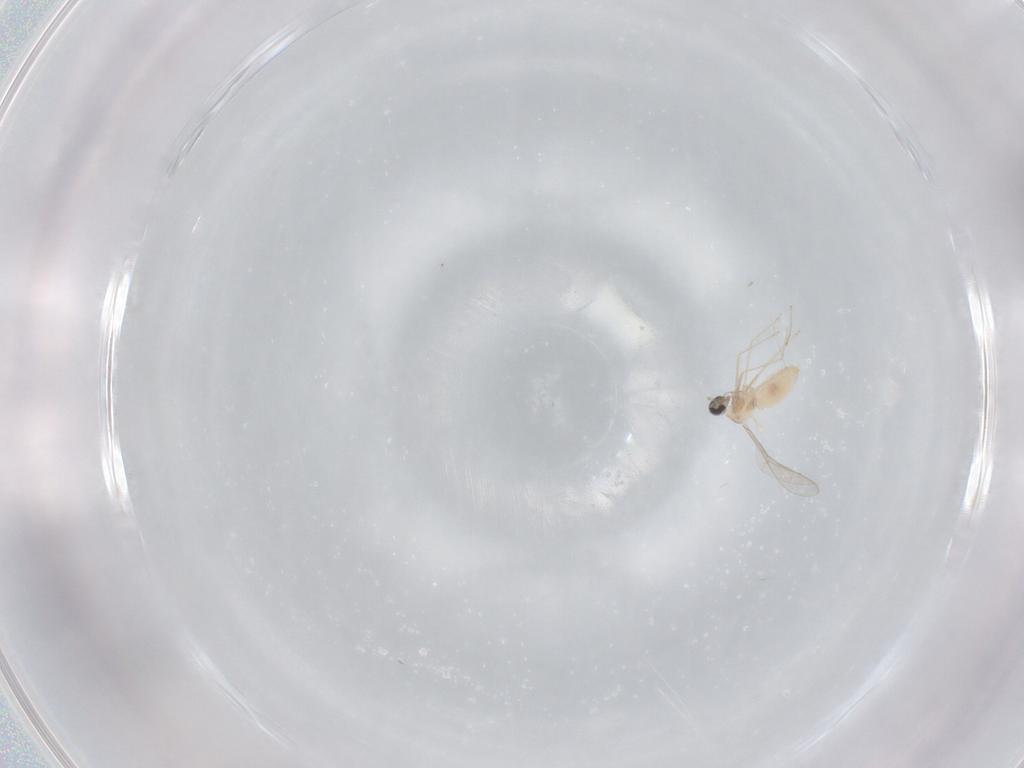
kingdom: Animalia
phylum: Arthropoda
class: Insecta
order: Diptera
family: Cecidomyiidae
